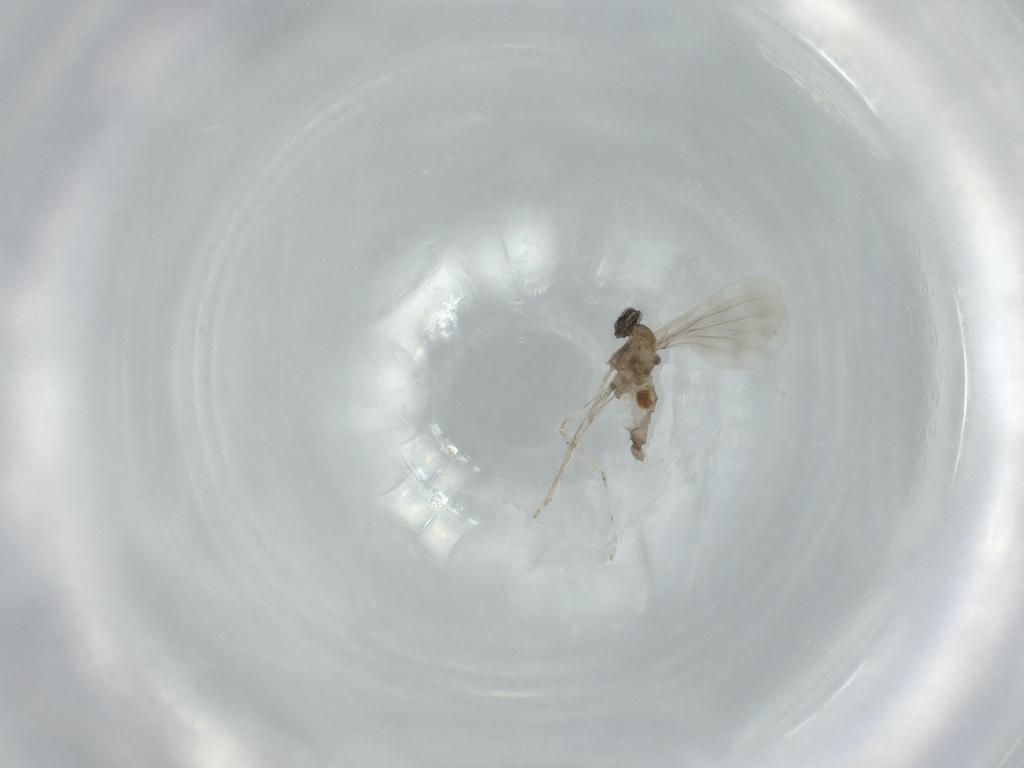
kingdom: Animalia
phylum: Arthropoda
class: Insecta
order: Diptera
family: Cecidomyiidae
